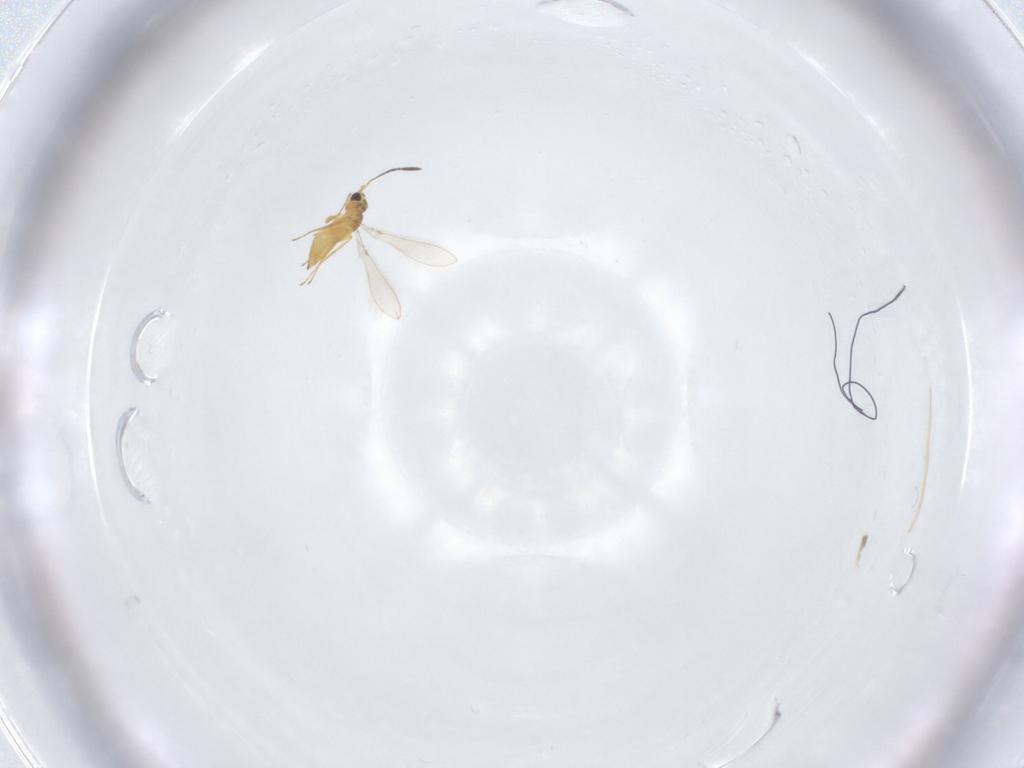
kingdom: Animalia
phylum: Arthropoda
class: Insecta
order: Hymenoptera
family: Mymaridae
